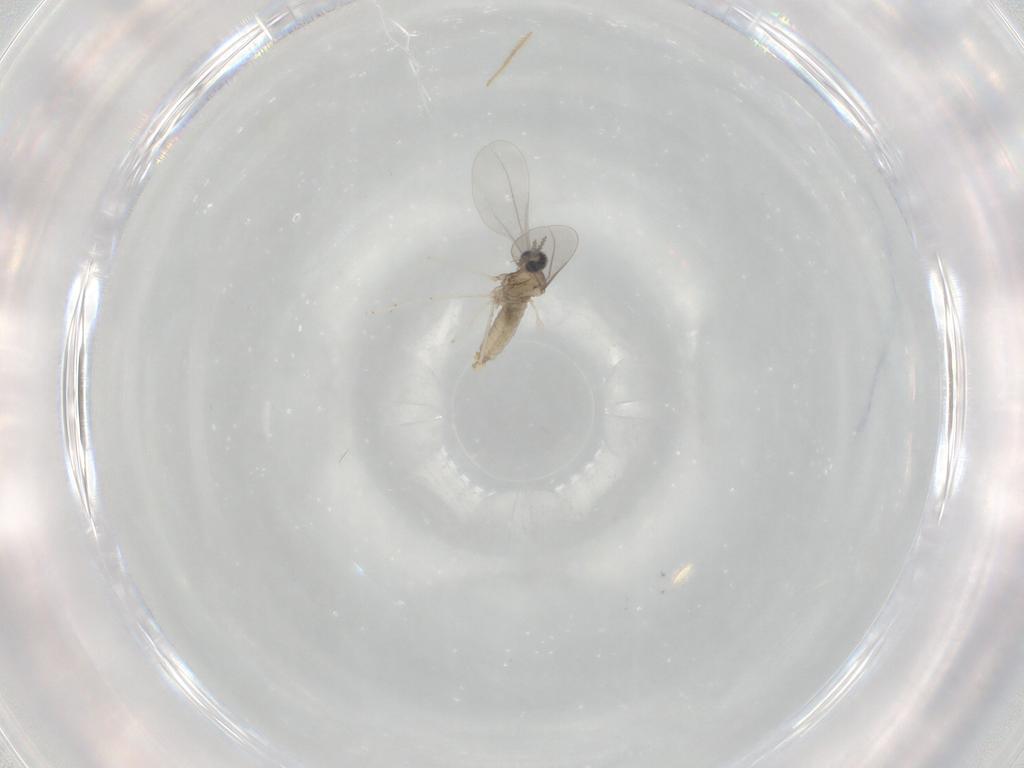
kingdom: Animalia
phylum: Arthropoda
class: Insecta
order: Diptera
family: Cecidomyiidae
